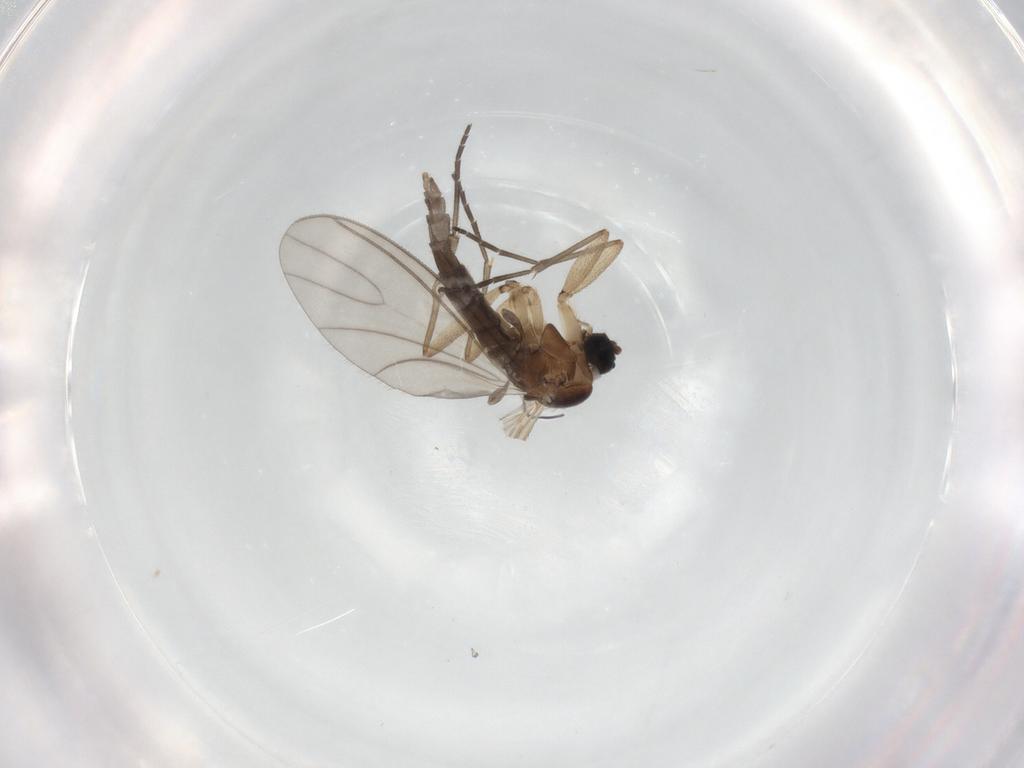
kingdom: Animalia
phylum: Arthropoda
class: Insecta
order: Diptera
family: Sciaridae
